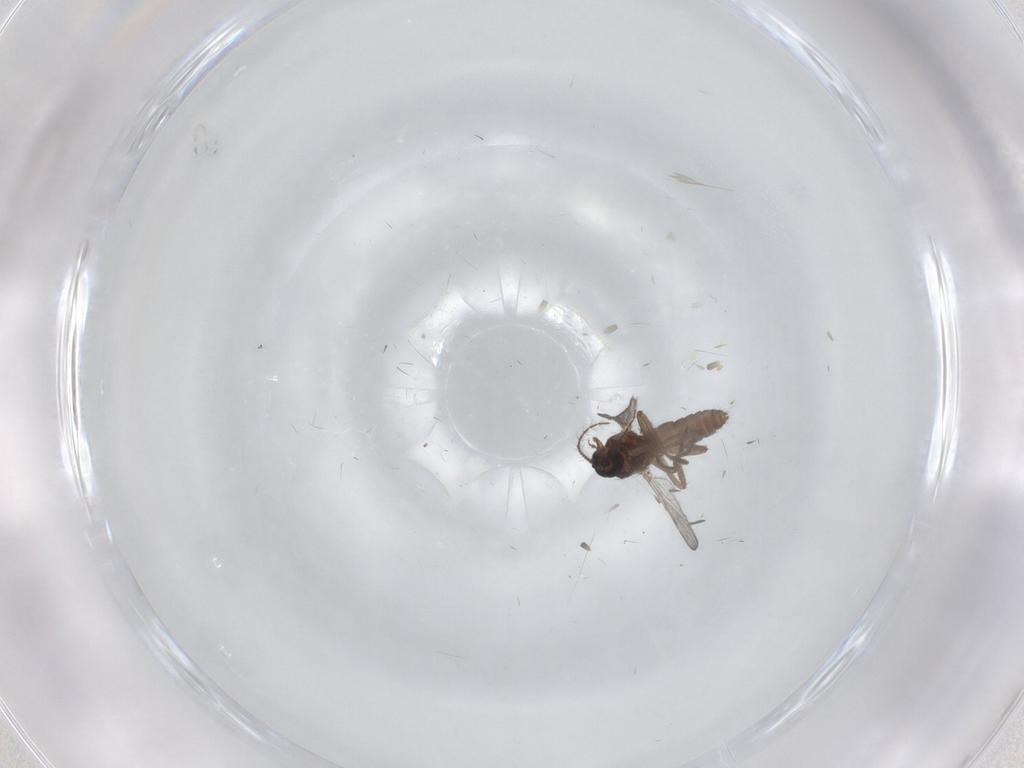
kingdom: Animalia
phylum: Arthropoda
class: Insecta
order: Diptera
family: Ceratopogonidae
